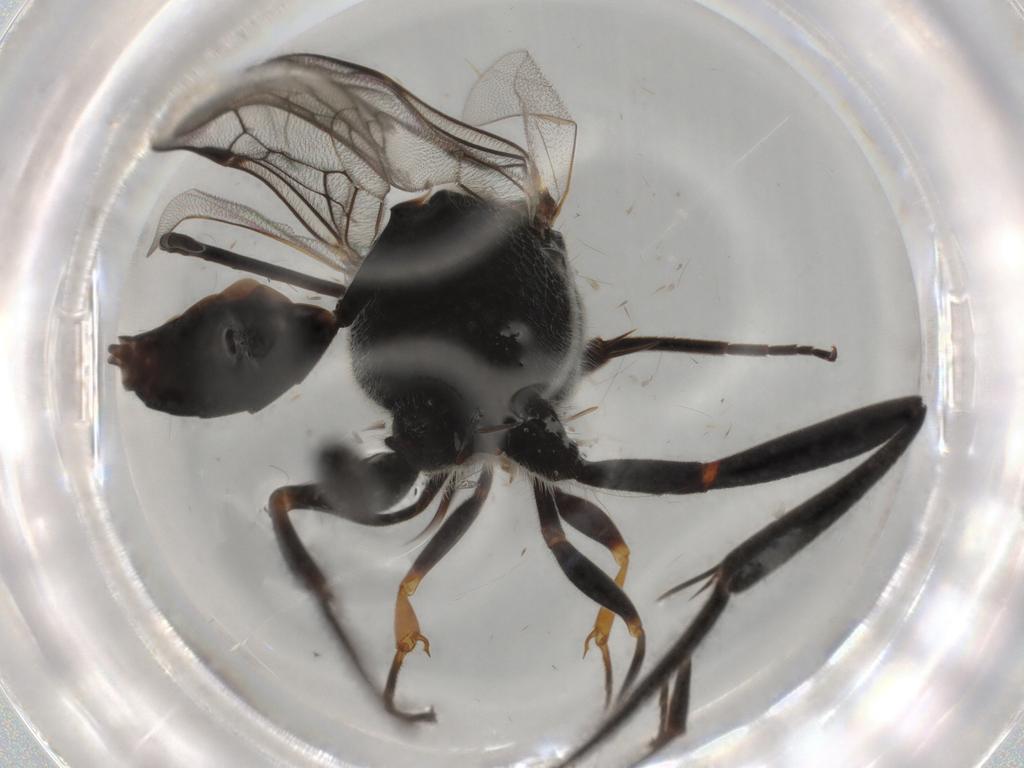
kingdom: Animalia
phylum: Arthropoda
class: Insecta
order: Hymenoptera
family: Evaniidae
